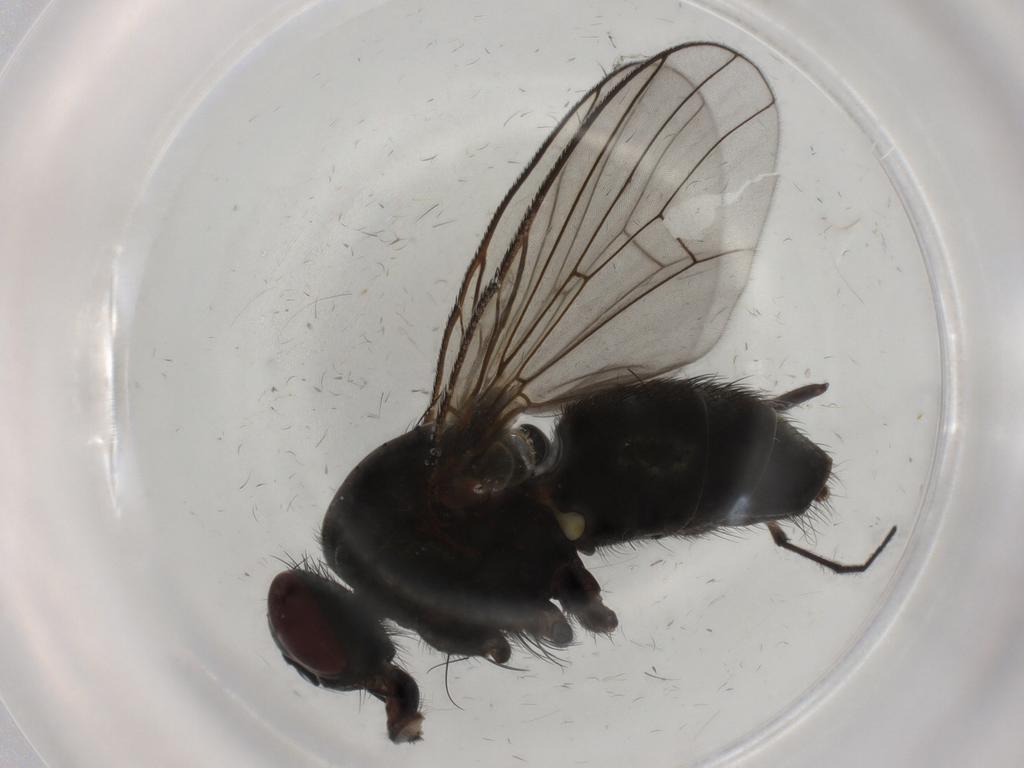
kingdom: Animalia
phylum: Arthropoda
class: Insecta
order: Diptera
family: Muscidae
